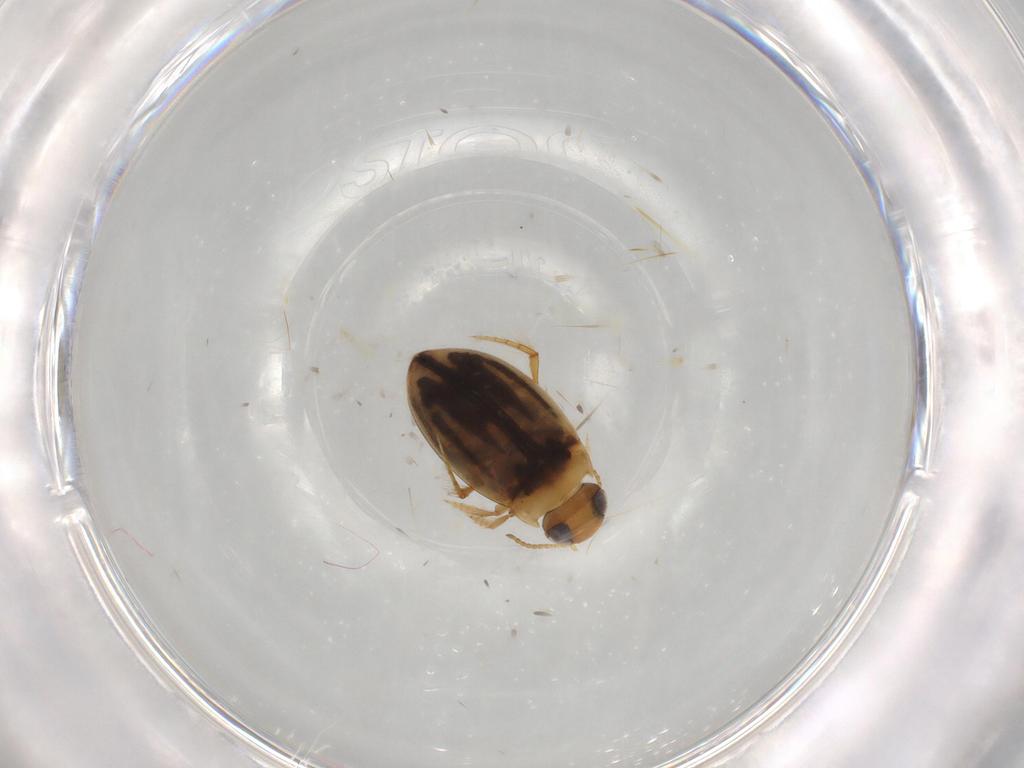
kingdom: Animalia
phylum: Arthropoda
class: Insecta
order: Coleoptera
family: Dytiscidae
